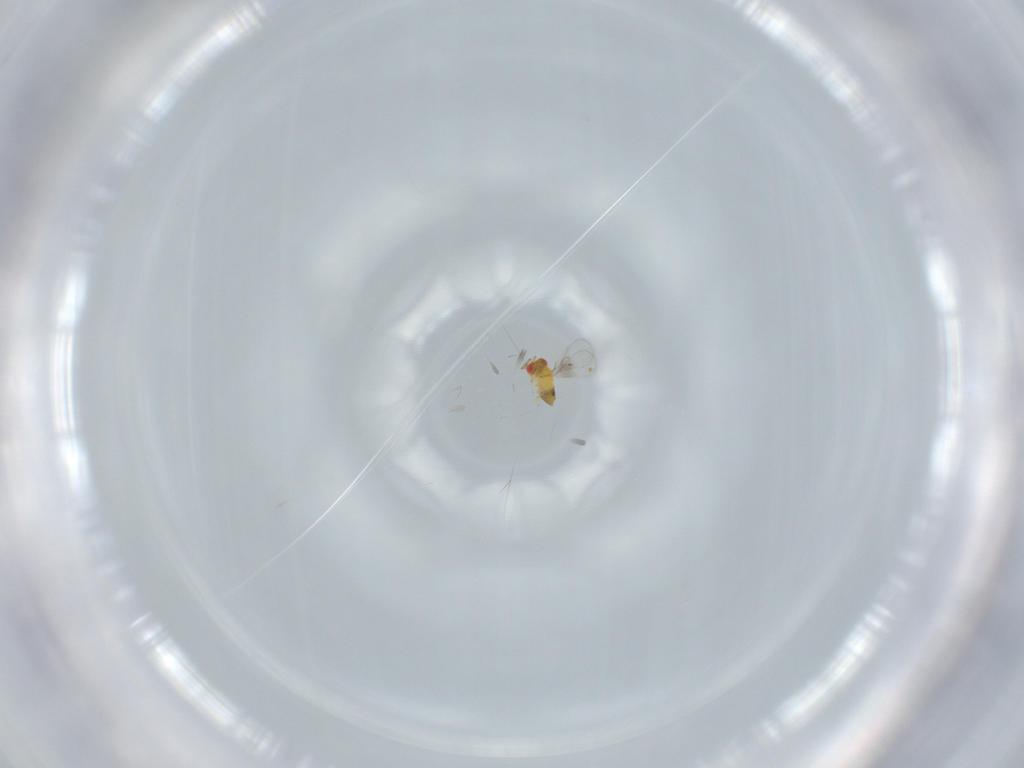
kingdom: Animalia
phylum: Arthropoda
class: Insecta
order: Hymenoptera
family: Trichogrammatidae
